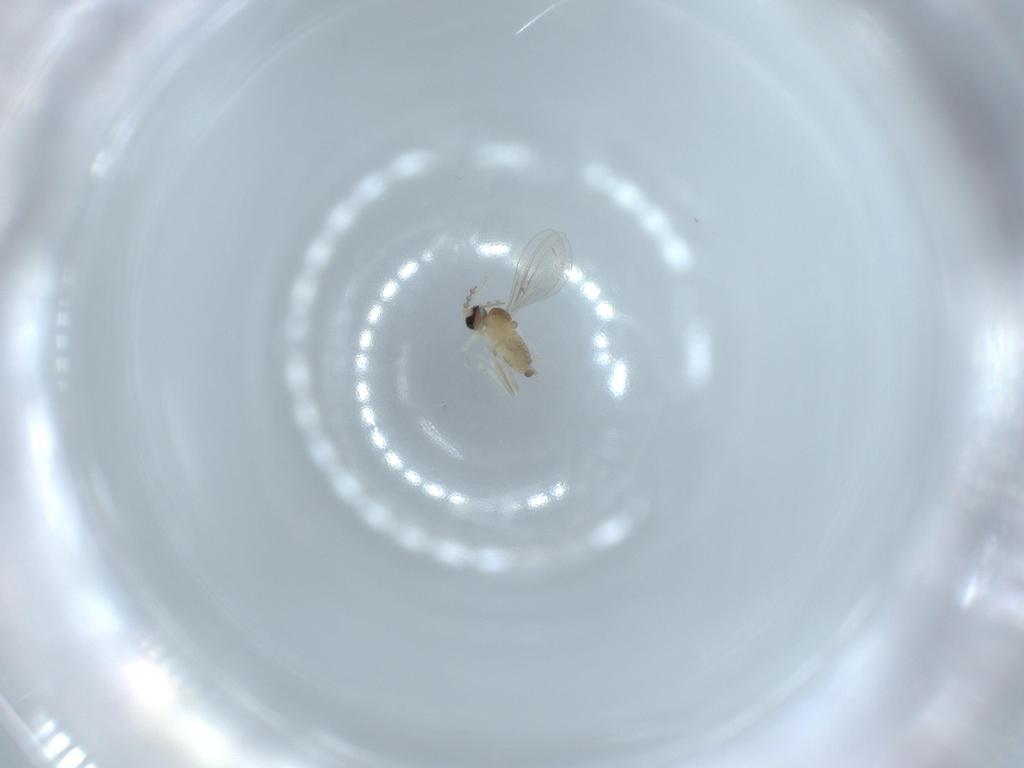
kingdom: Animalia
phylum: Arthropoda
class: Insecta
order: Diptera
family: Cecidomyiidae
